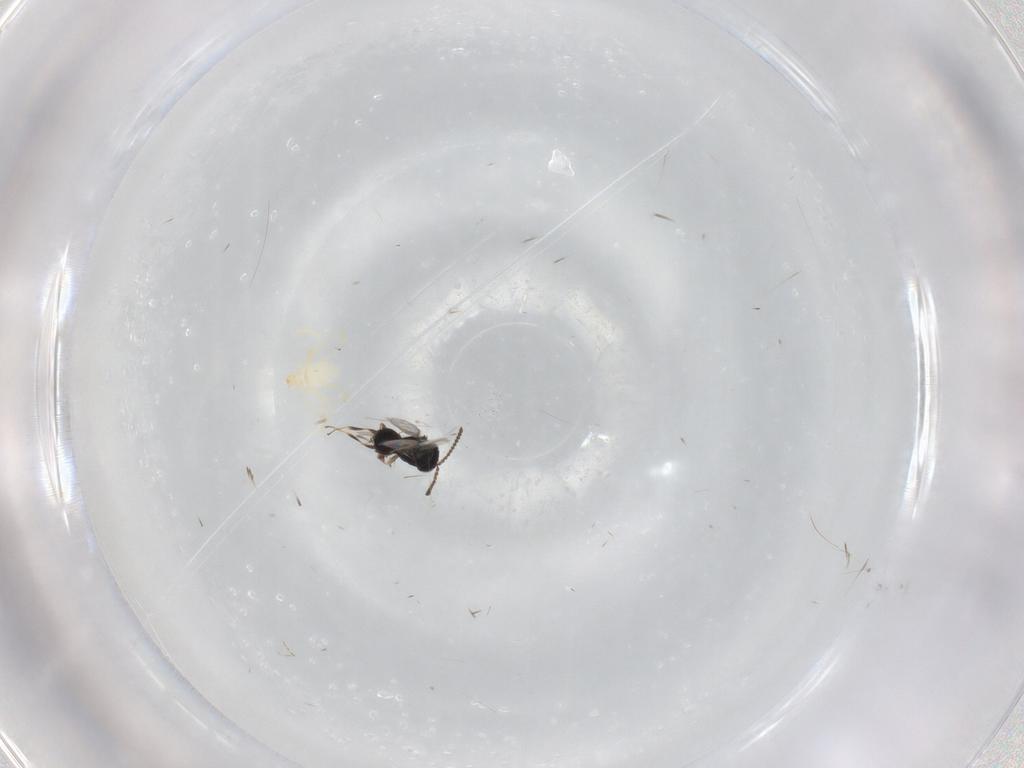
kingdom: Animalia
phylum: Arthropoda
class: Insecta
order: Hymenoptera
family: Scelionidae
